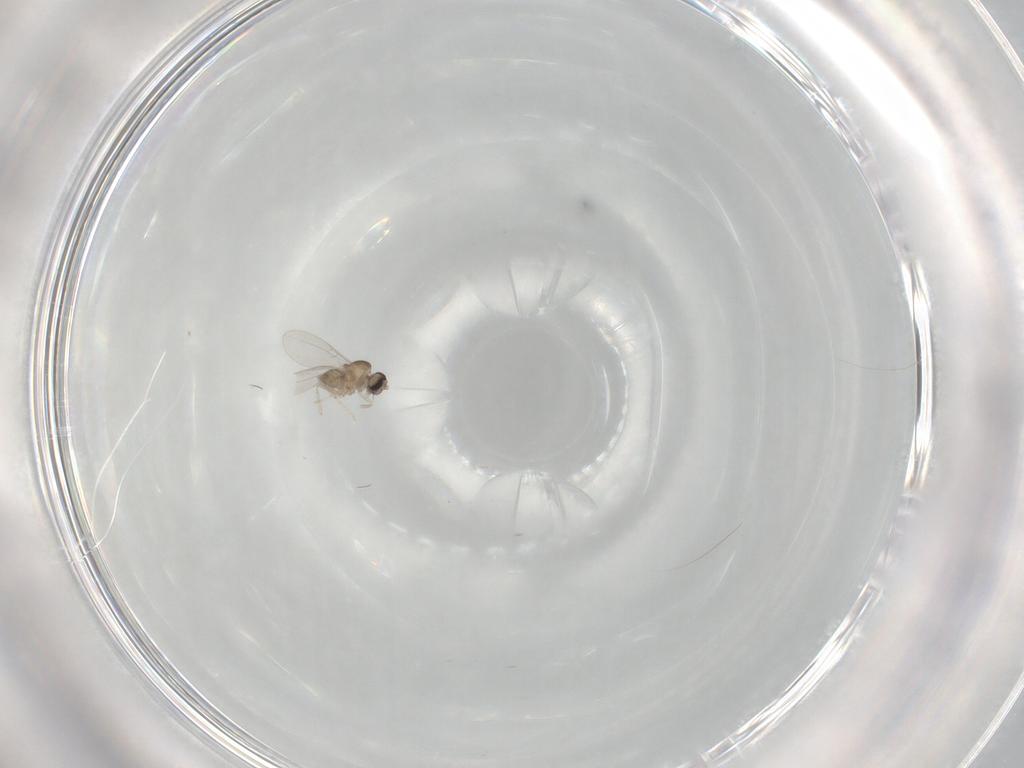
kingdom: Animalia
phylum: Arthropoda
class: Insecta
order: Diptera
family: Cecidomyiidae
